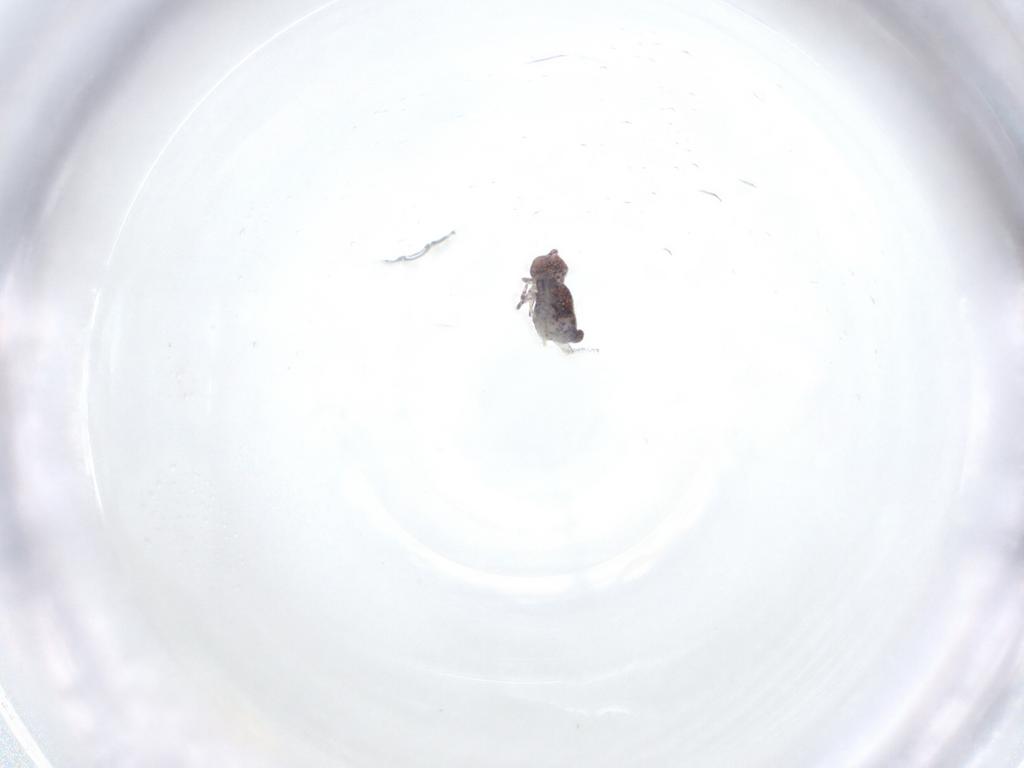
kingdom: Animalia
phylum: Arthropoda
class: Collembola
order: Symphypleona
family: Bourletiellidae
